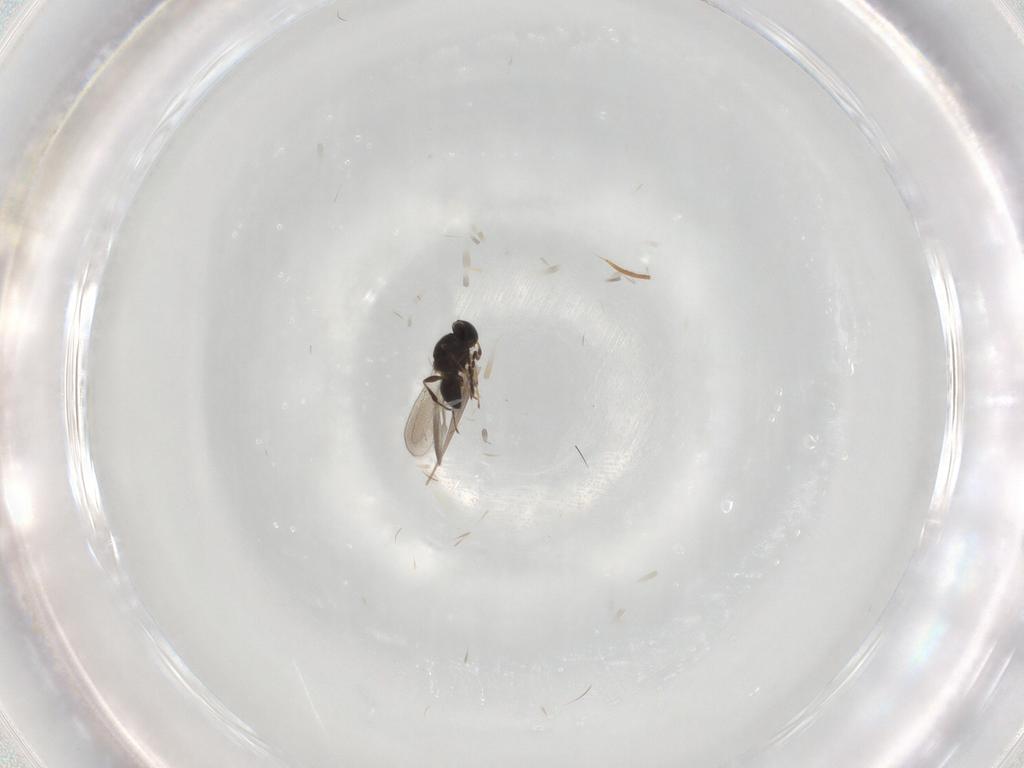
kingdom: Animalia
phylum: Arthropoda
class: Insecta
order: Hymenoptera
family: Platygastridae
